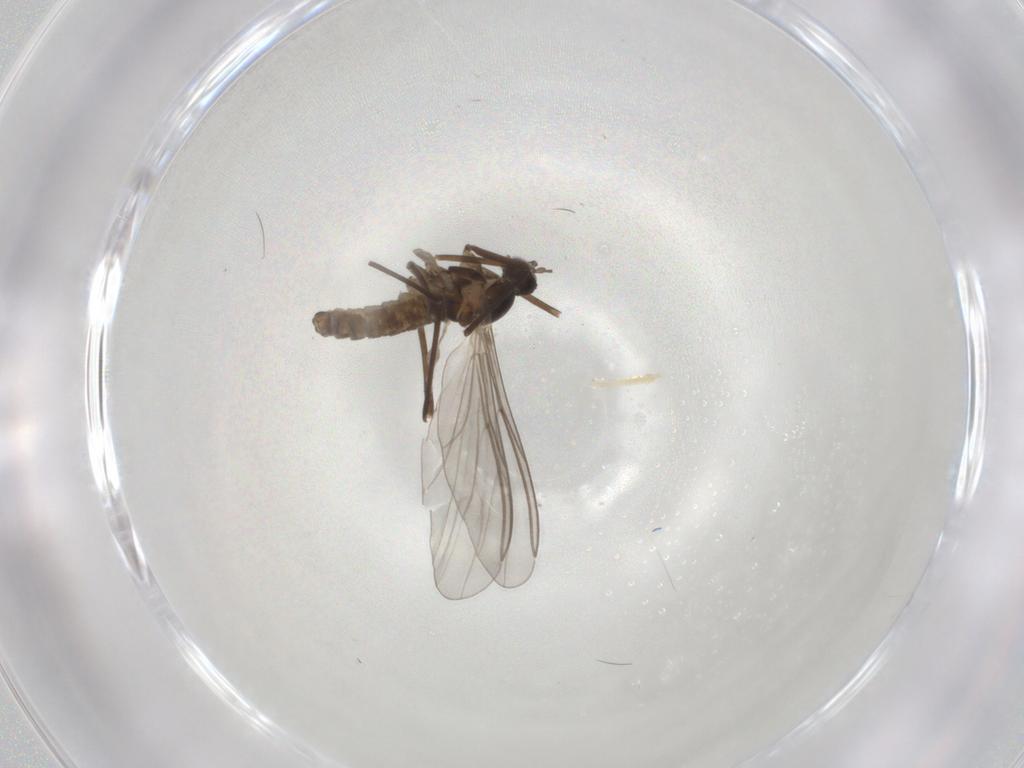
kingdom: Animalia
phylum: Arthropoda
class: Insecta
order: Diptera
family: Cecidomyiidae
